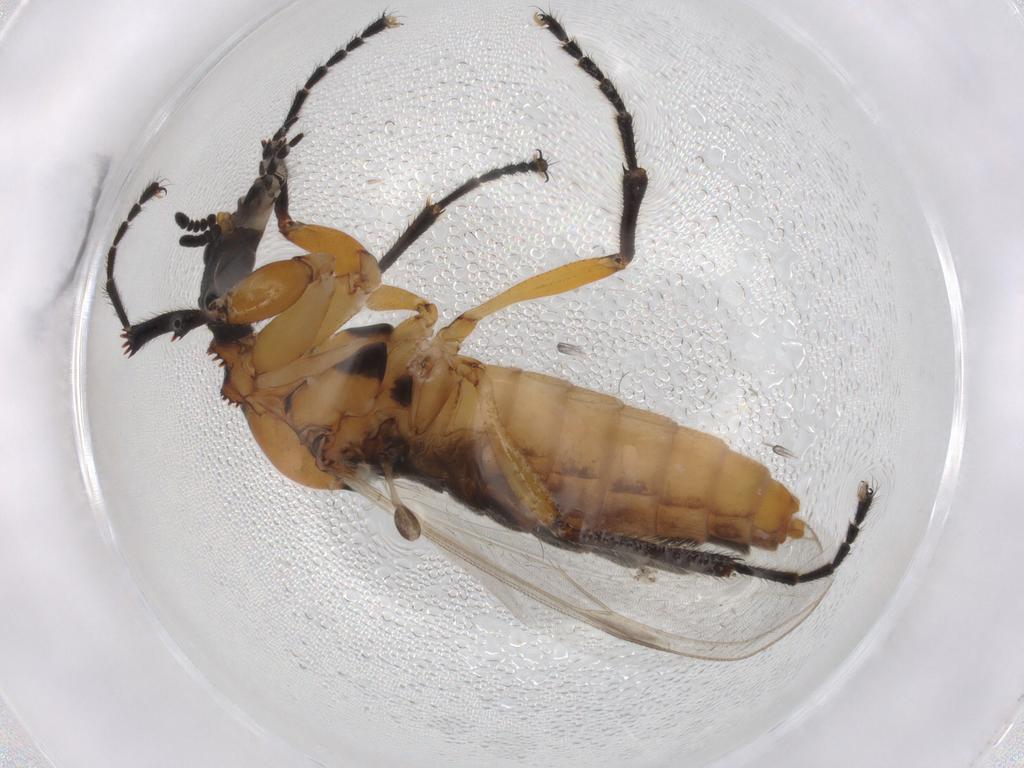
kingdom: Animalia
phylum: Arthropoda
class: Insecta
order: Diptera
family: Bibionidae
